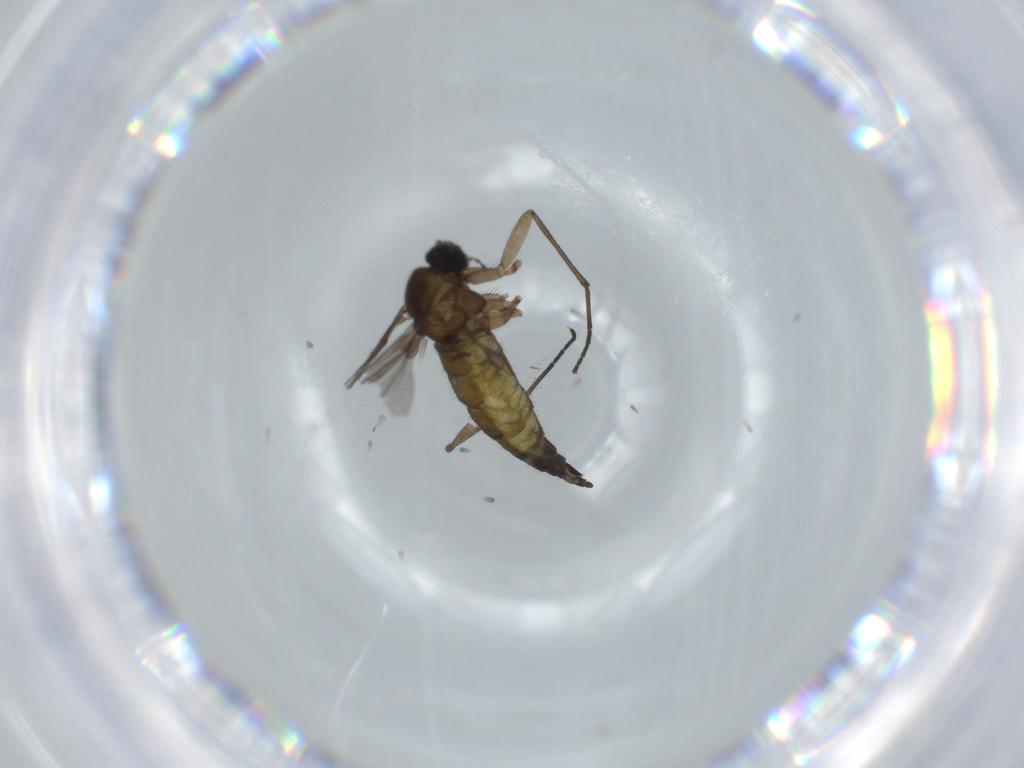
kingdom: Animalia
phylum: Arthropoda
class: Insecta
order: Diptera
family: Sciaridae
